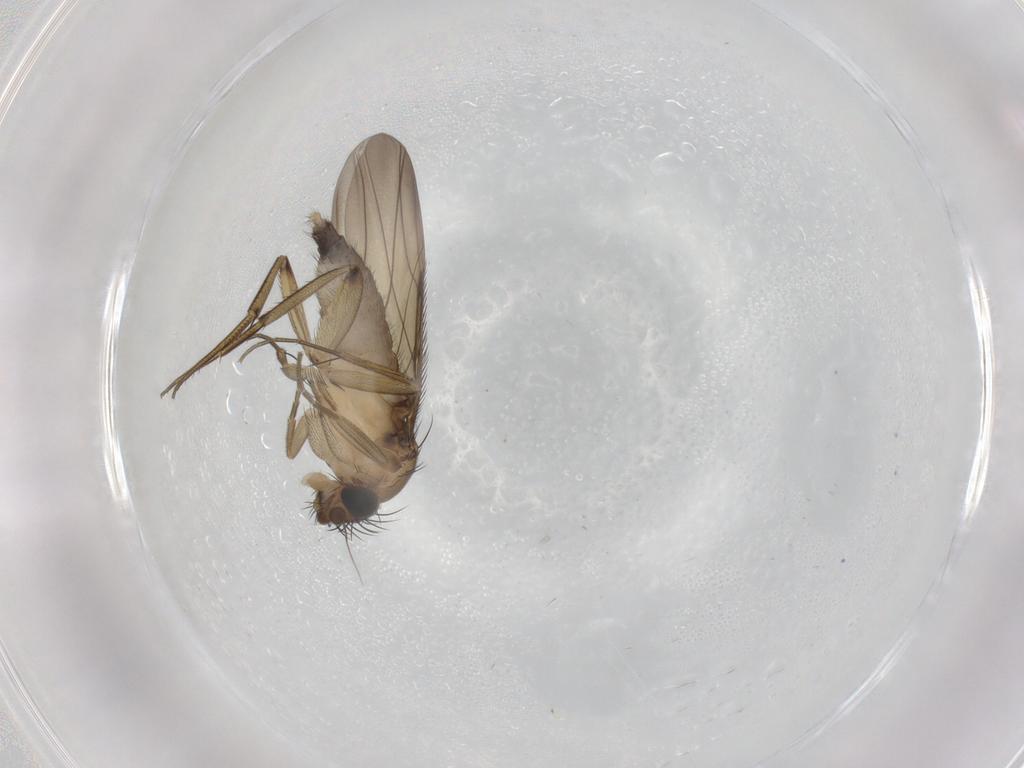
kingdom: Animalia
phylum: Arthropoda
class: Insecta
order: Diptera
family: Phoridae
